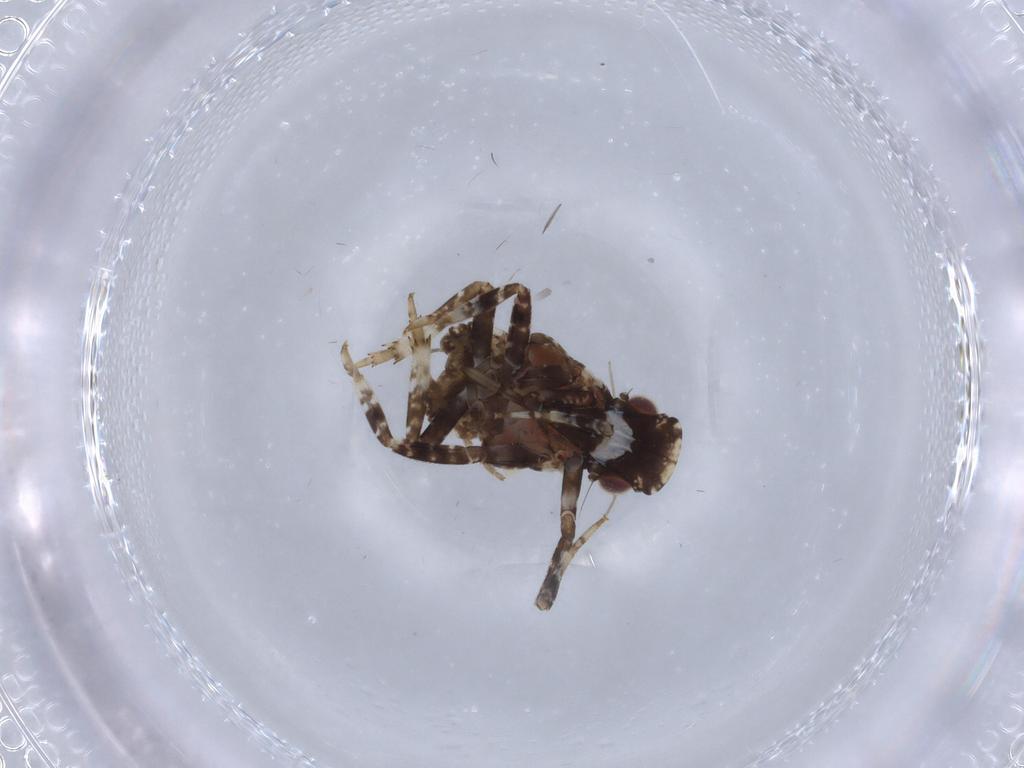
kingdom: Animalia
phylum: Arthropoda
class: Insecta
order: Hemiptera
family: Fulgoridae
